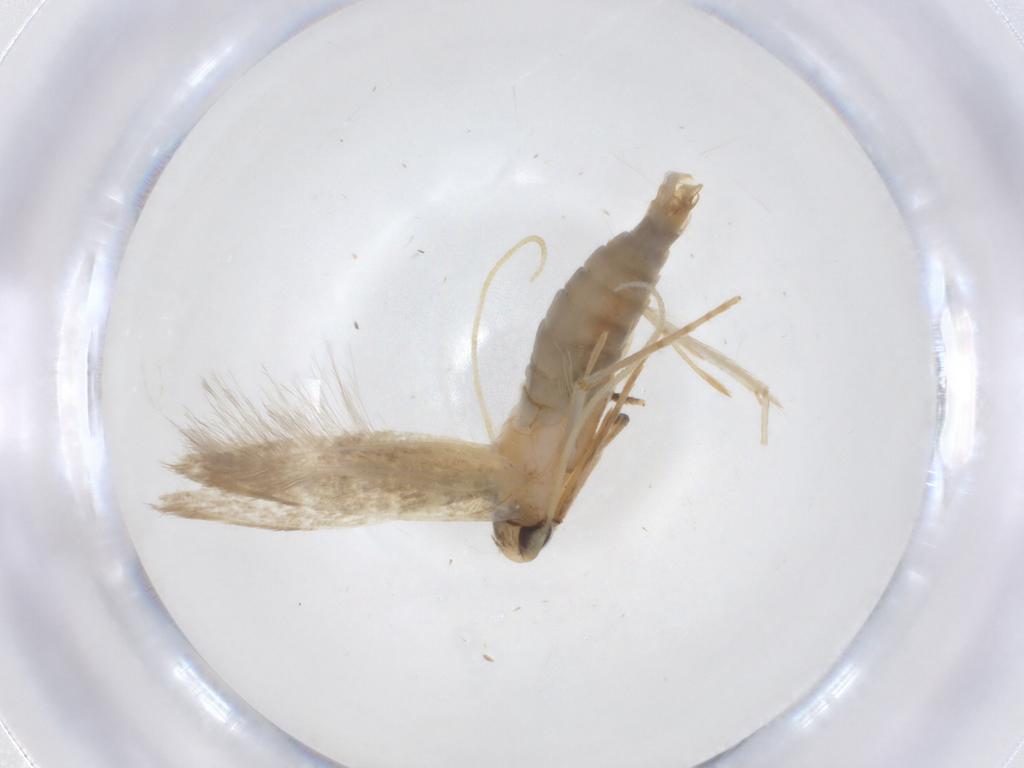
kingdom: Animalia
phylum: Arthropoda
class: Insecta
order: Lepidoptera
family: Tineidae
